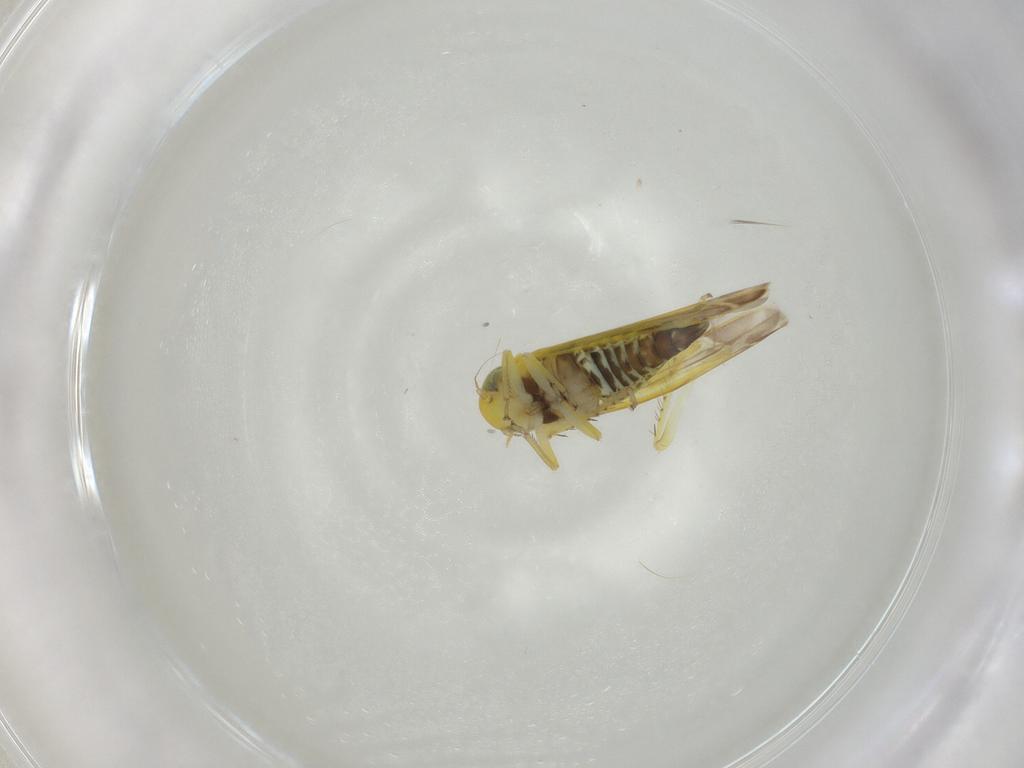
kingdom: Animalia
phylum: Arthropoda
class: Insecta
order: Hemiptera
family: Cicadellidae
